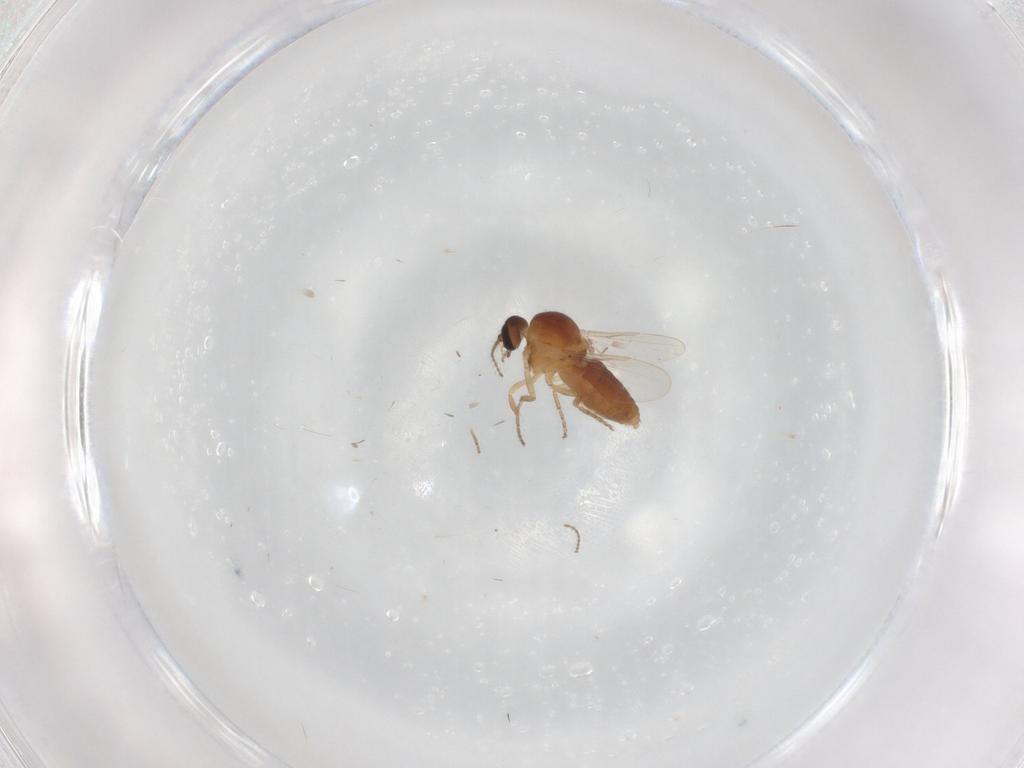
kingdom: Animalia
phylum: Arthropoda
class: Insecta
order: Diptera
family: Ceratopogonidae
